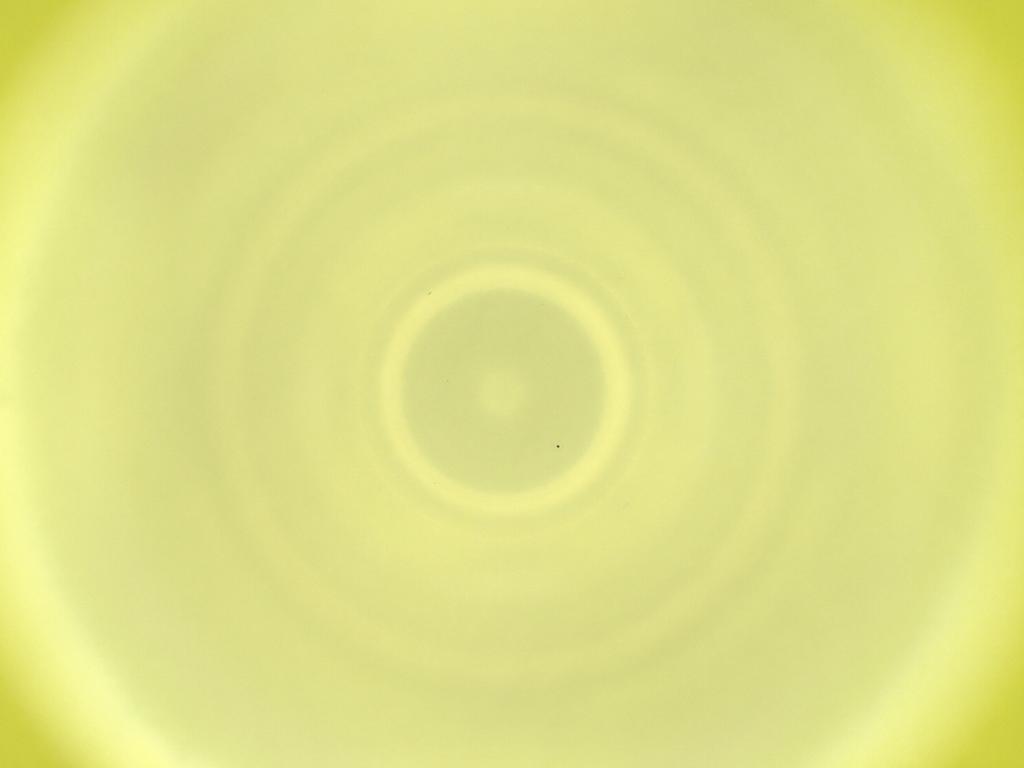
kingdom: Animalia
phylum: Arthropoda
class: Insecta
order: Diptera
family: Cecidomyiidae
